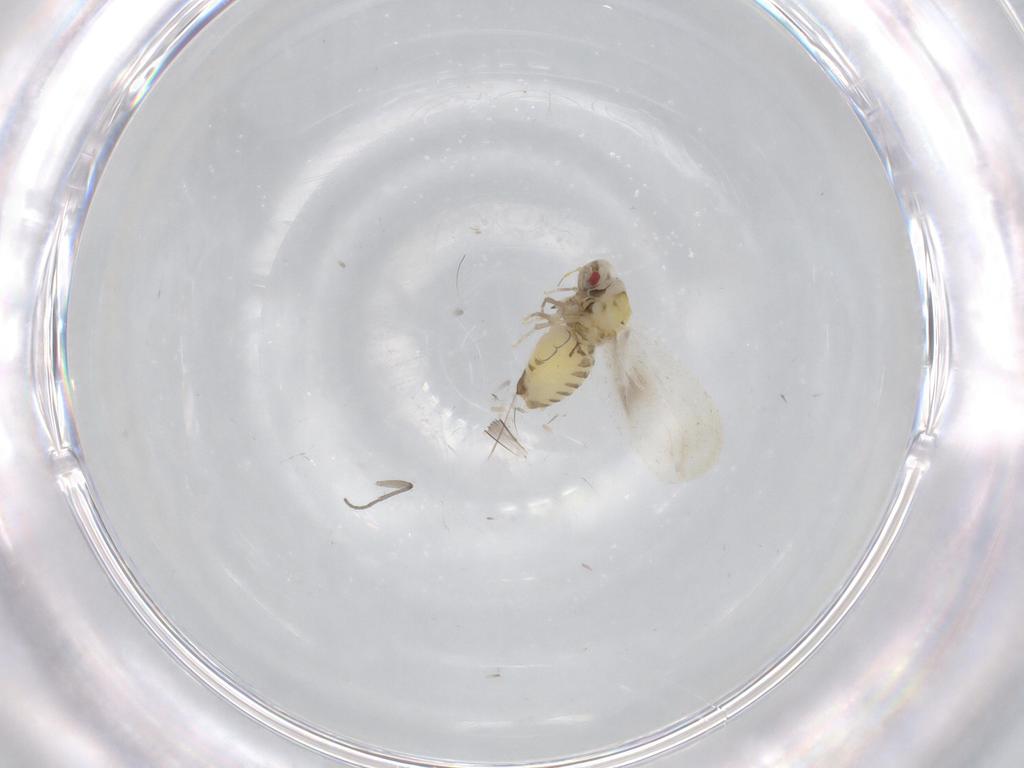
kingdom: Animalia
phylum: Arthropoda
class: Insecta
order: Hemiptera
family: Aleyrodidae
